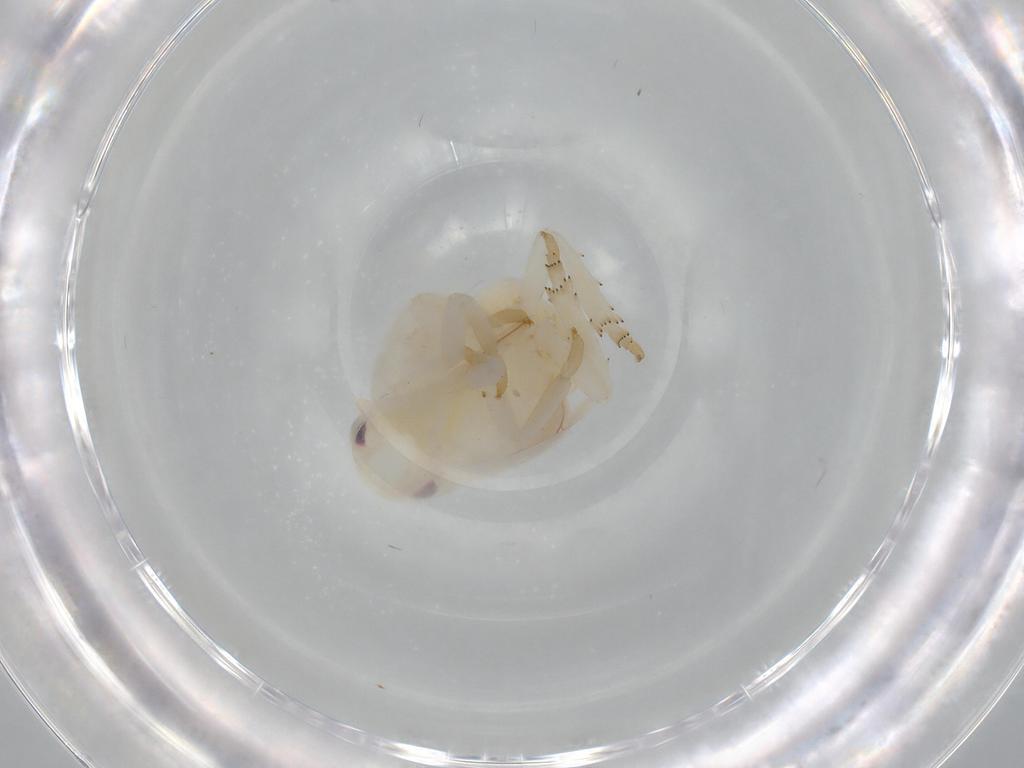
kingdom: Animalia
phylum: Arthropoda
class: Insecta
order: Hemiptera
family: Flatidae
